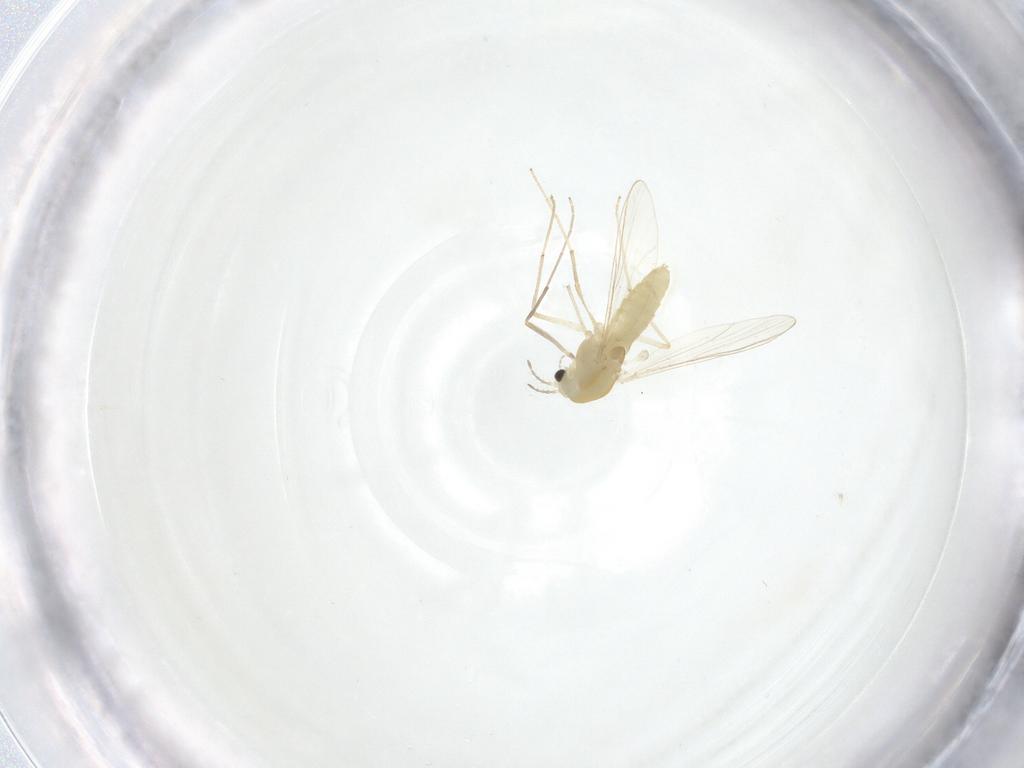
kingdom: Animalia
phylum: Arthropoda
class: Insecta
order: Diptera
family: Chironomidae
